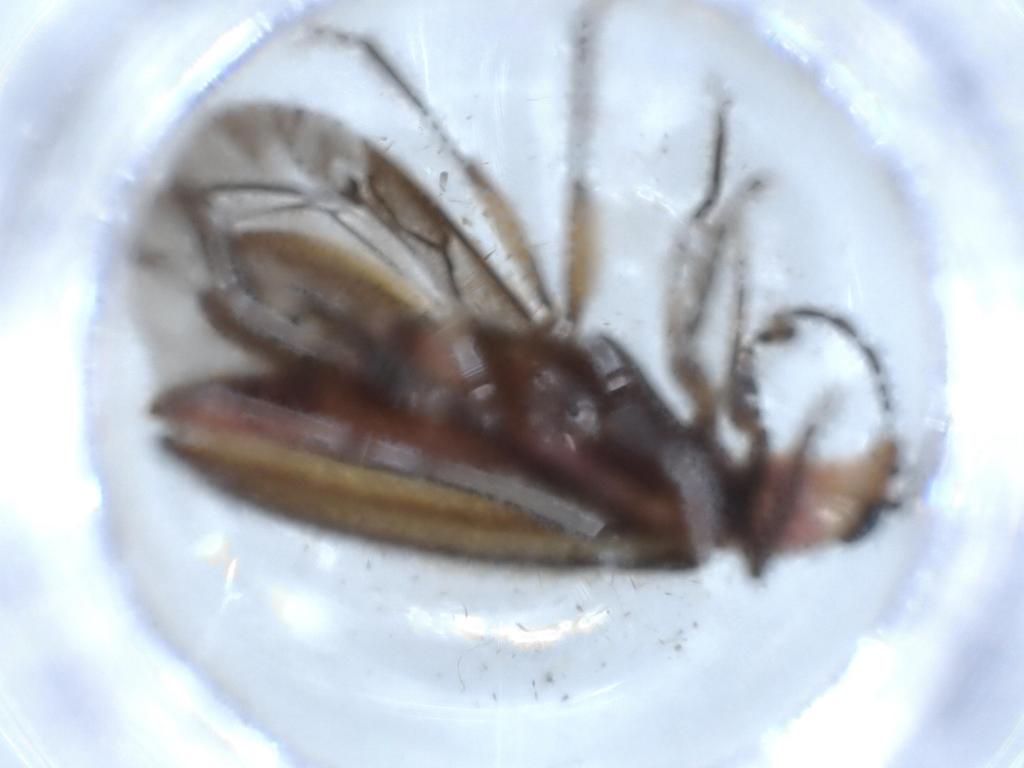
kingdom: Animalia
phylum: Arthropoda
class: Insecta
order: Coleoptera
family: Cleridae
